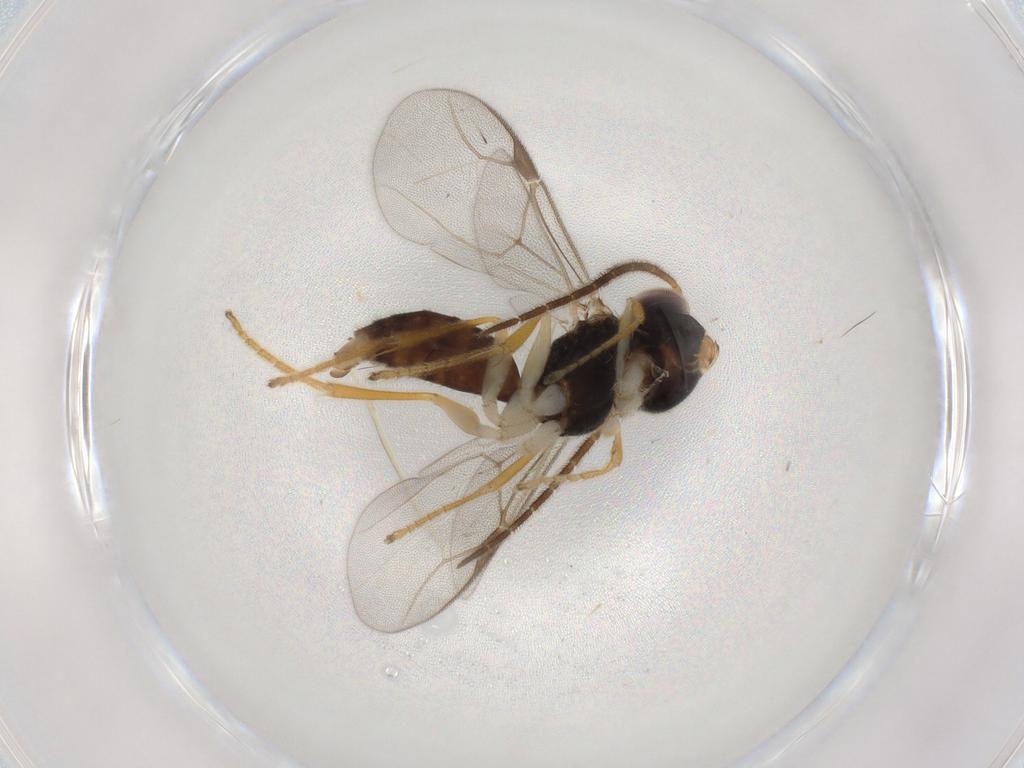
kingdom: Animalia
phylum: Arthropoda
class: Insecta
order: Hymenoptera
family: Dryinidae
